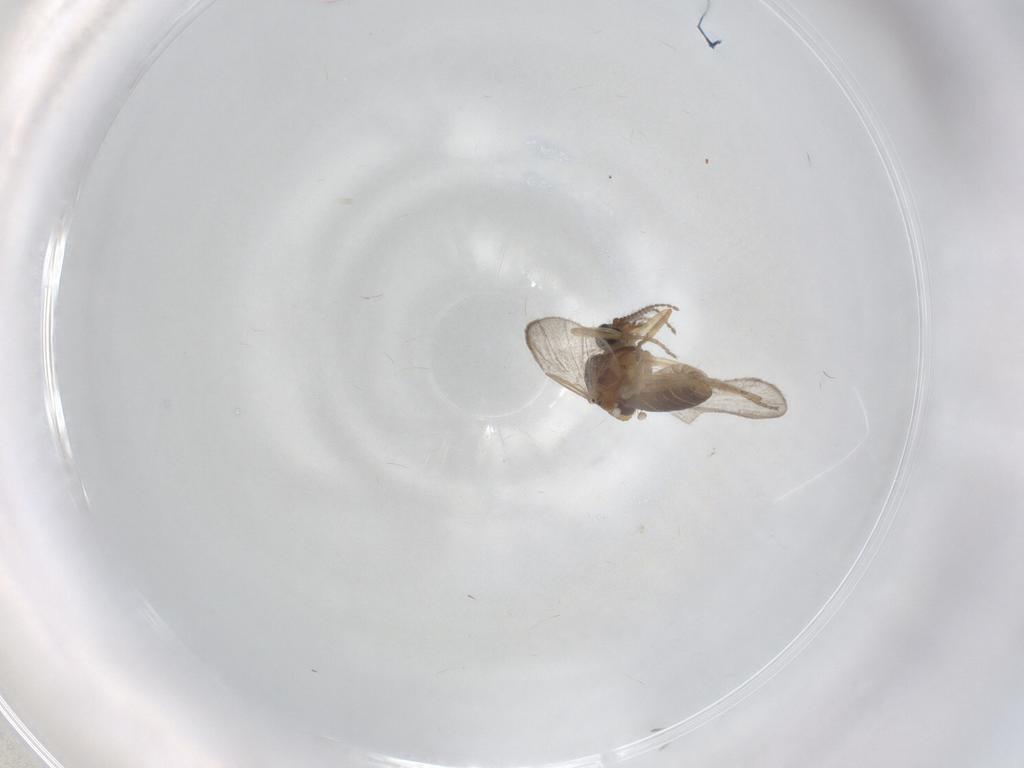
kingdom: Animalia
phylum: Arthropoda
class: Insecta
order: Diptera
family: Ceratopogonidae
